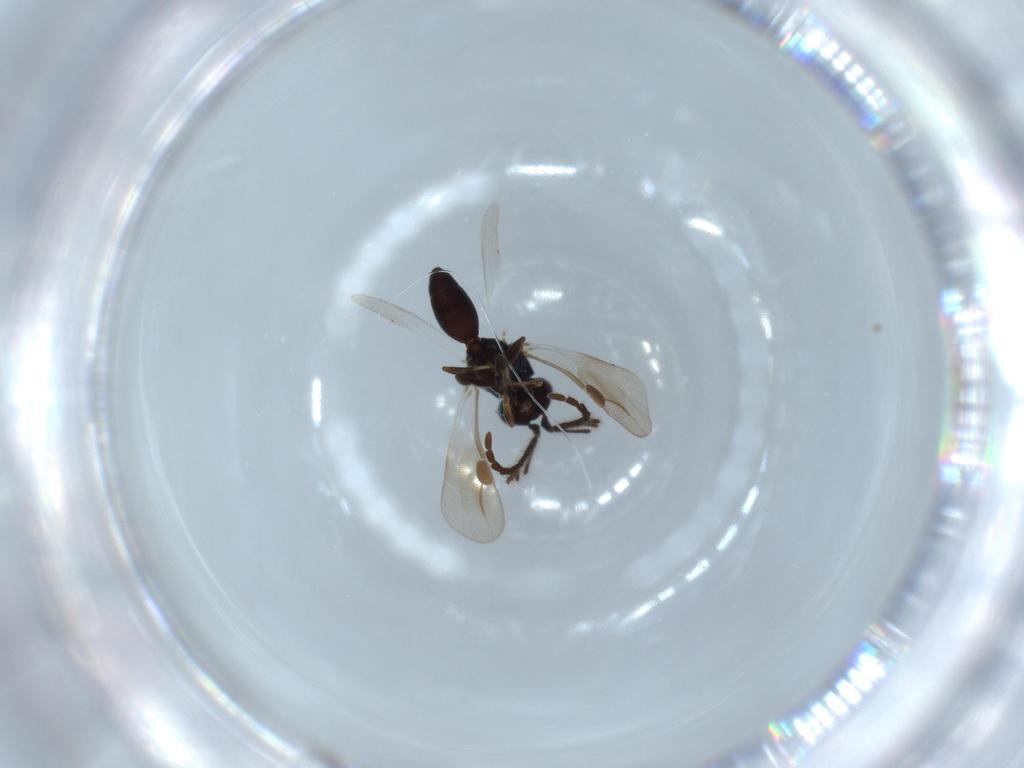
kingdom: Animalia
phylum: Arthropoda
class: Insecta
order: Hymenoptera
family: Megaspilidae
